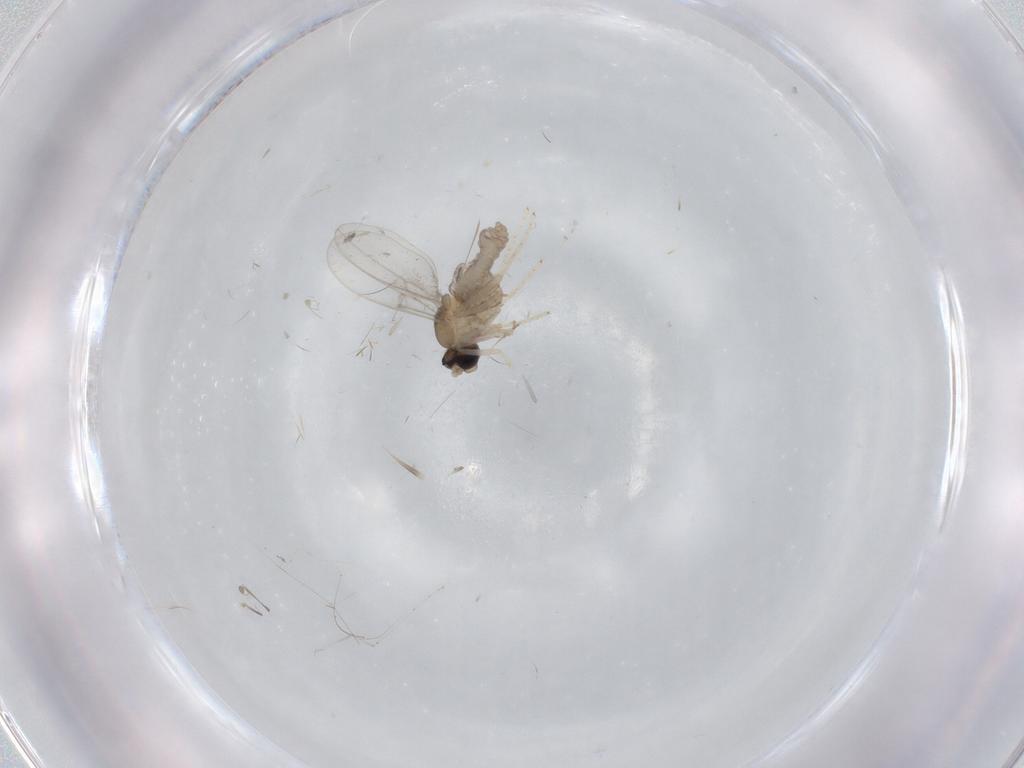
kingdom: Animalia
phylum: Arthropoda
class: Insecta
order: Diptera
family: Cecidomyiidae
